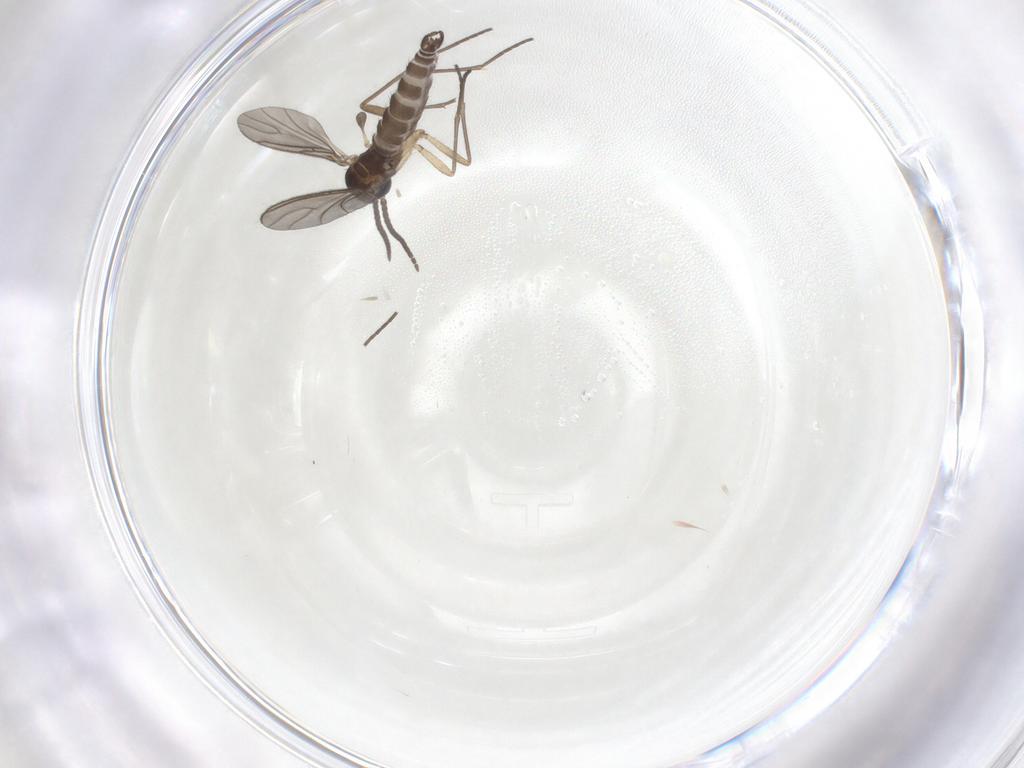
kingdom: Animalia
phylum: Arthropoda
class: Insecta
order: Diptera
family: Sciaridae
